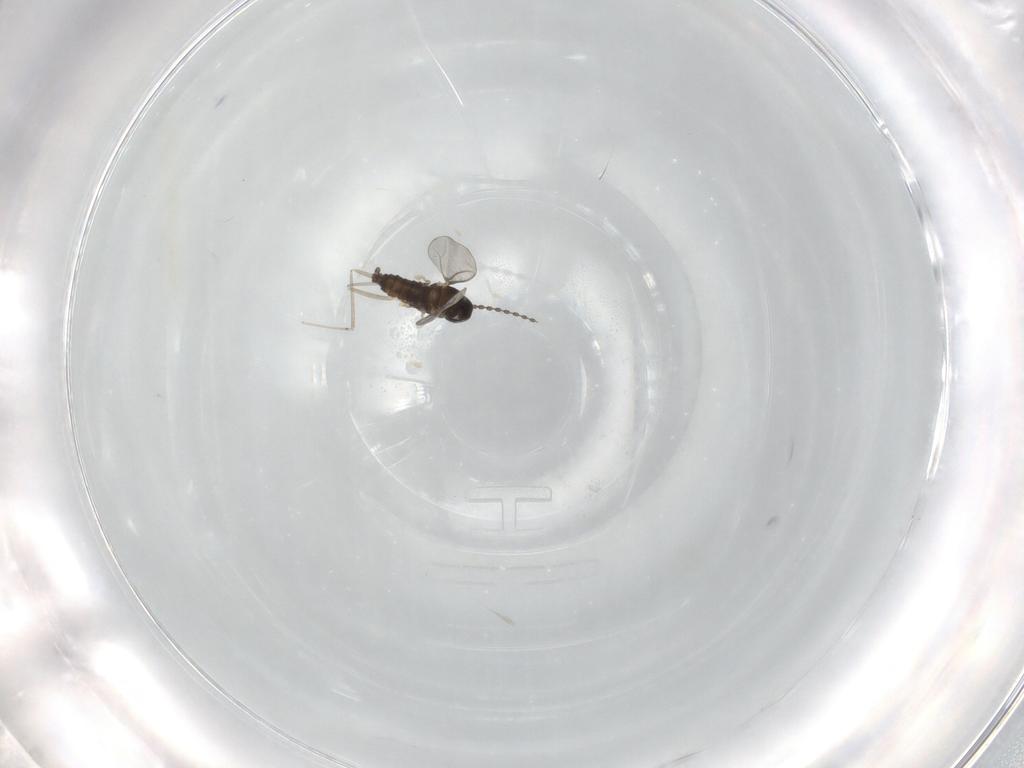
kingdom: Animalia
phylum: Arthropoda
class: Insecta
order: Diptera
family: Cecidomyiidae
